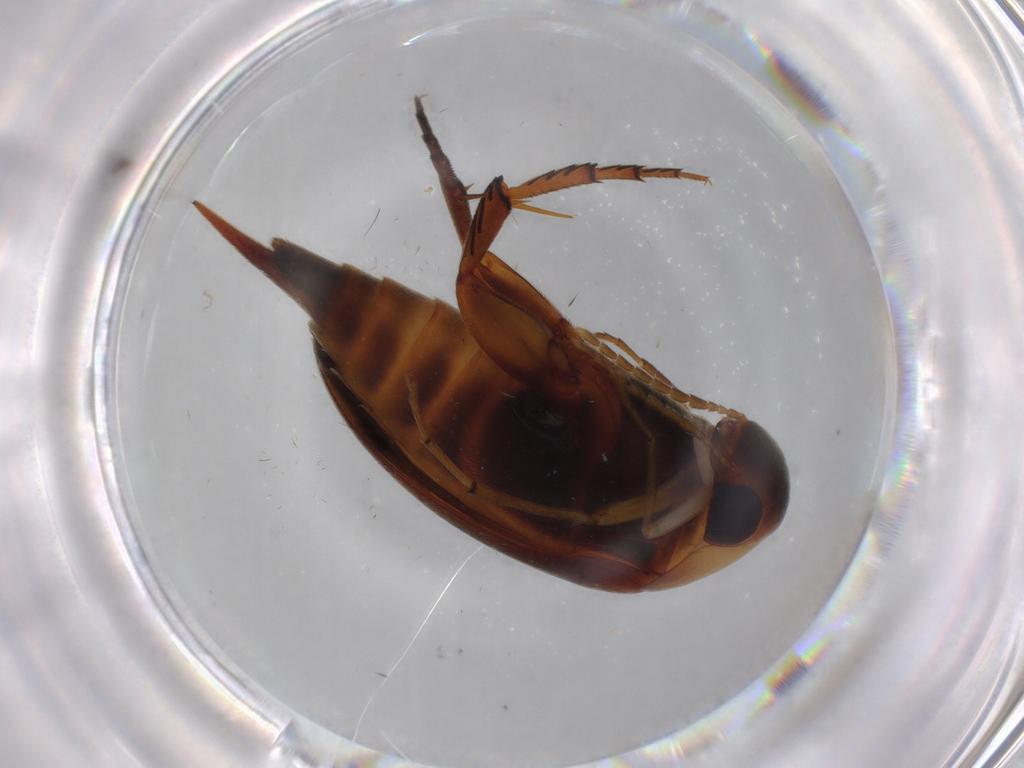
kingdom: Animalia
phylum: Arthropoda
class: Insecta
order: Coleoptera
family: Mordellidae
